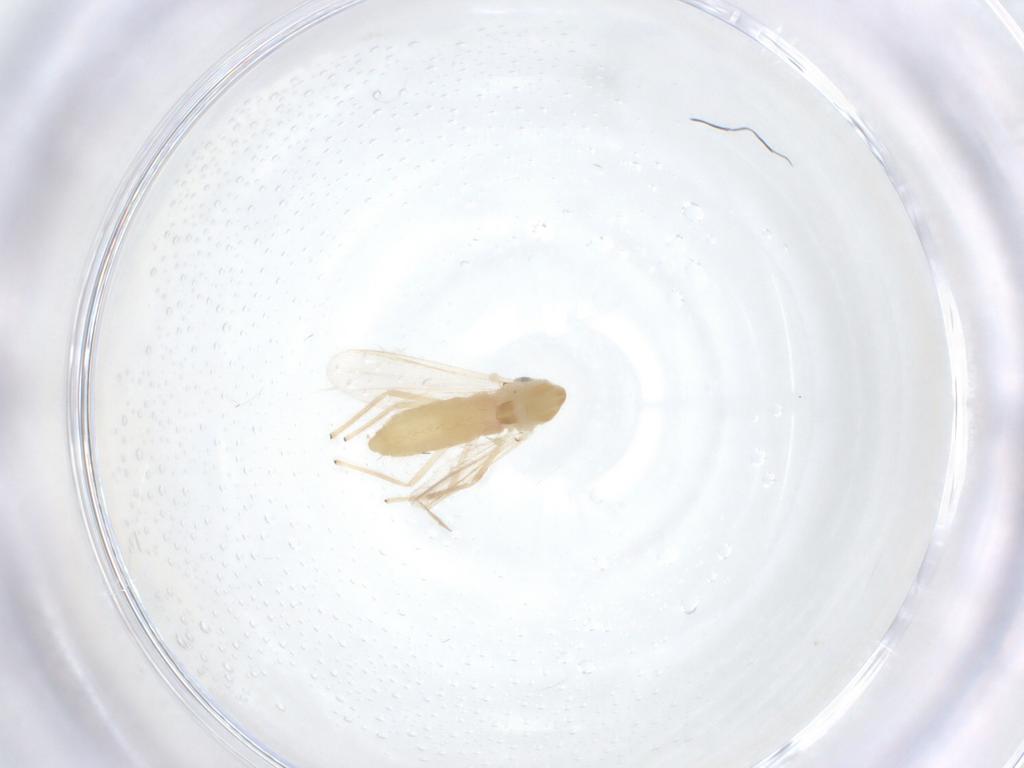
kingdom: Animalia
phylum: Arthropoda
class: Insecta
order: Diptera
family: Chironomidae
